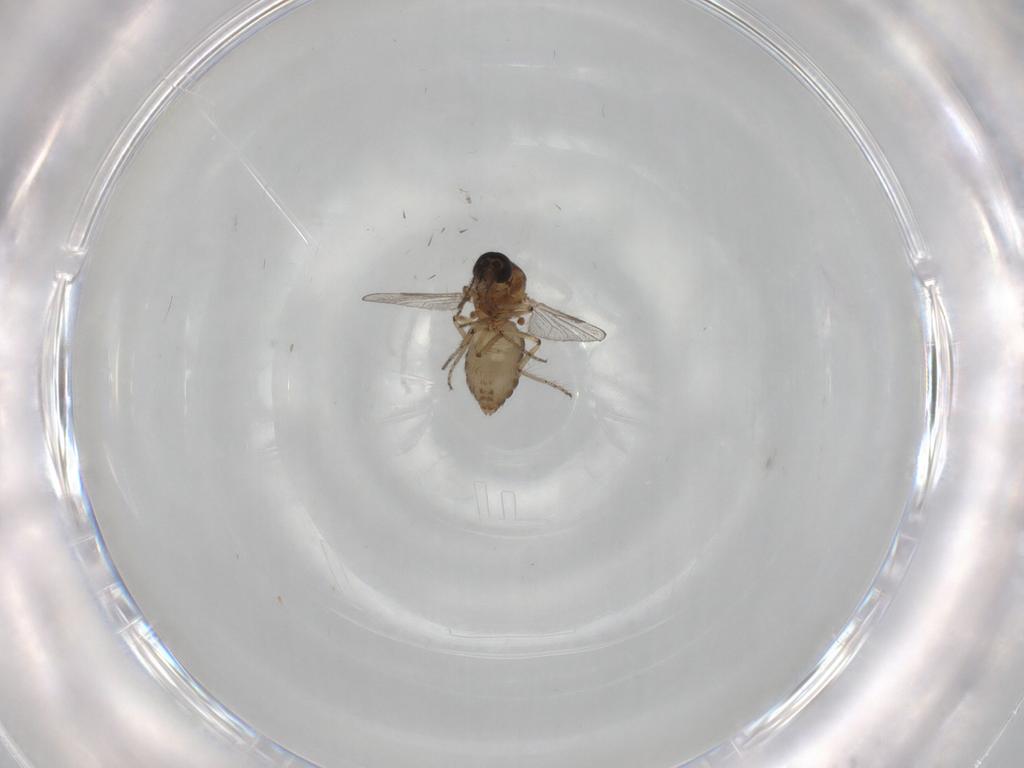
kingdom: Animalia
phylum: Arthropoda
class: Insecta
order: Diptera
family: Ceratopogonidae
